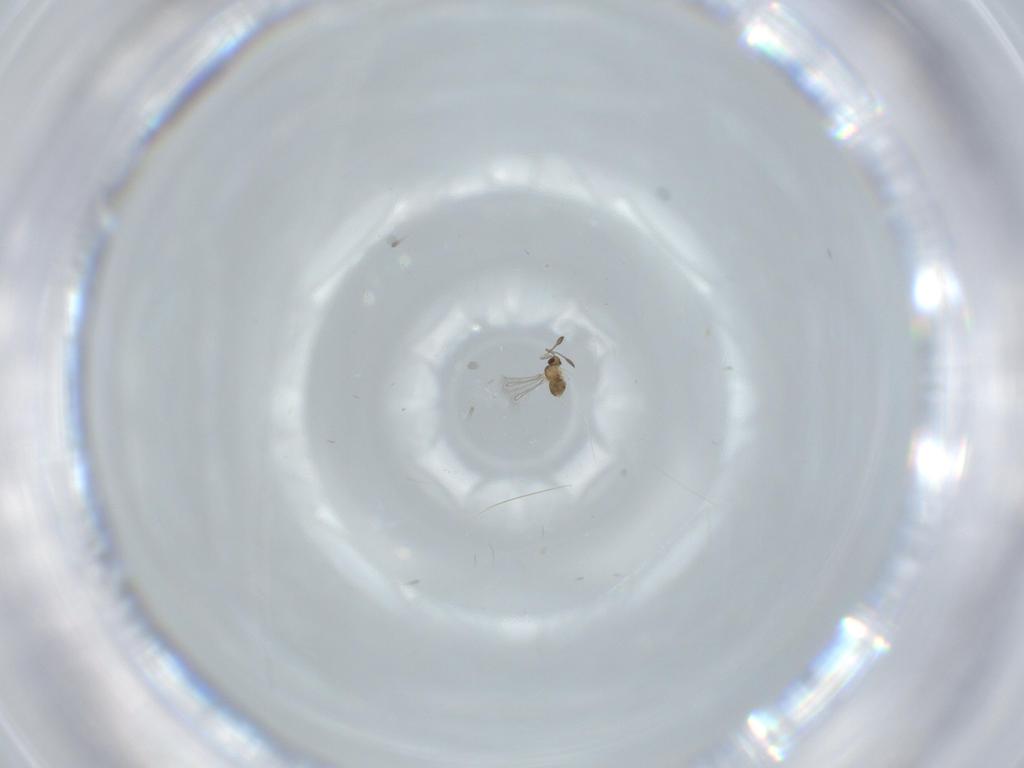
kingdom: Animalia
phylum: Arthropoda
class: Insecta
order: Hymenoptera
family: Mymaridae
